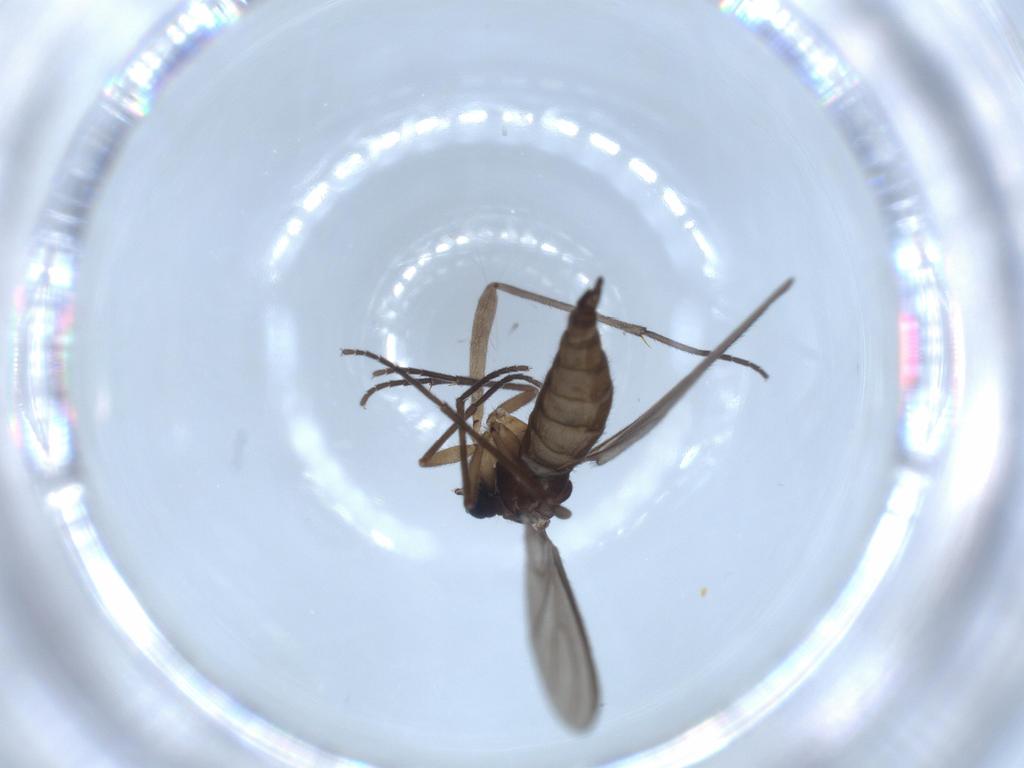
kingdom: Animalia
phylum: Arthropoda
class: Insecta
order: Diptera
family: Sciaridae
